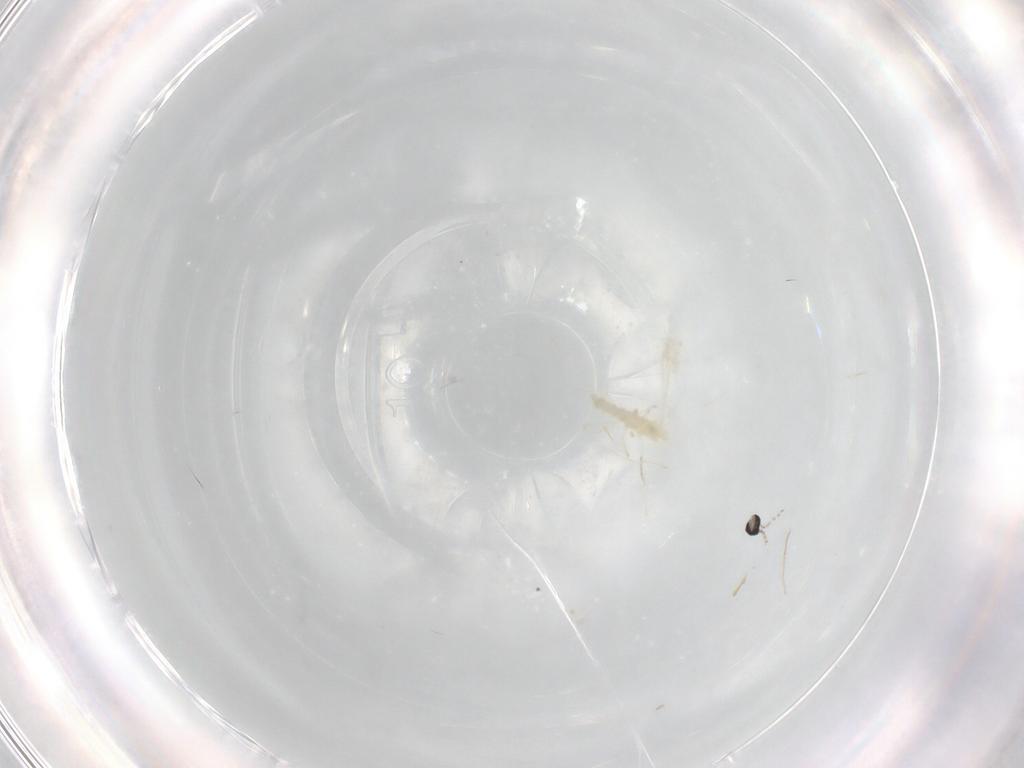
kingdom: Animalia
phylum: Arthropoda
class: Insecta
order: Diptera
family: Cecidomyiidae
